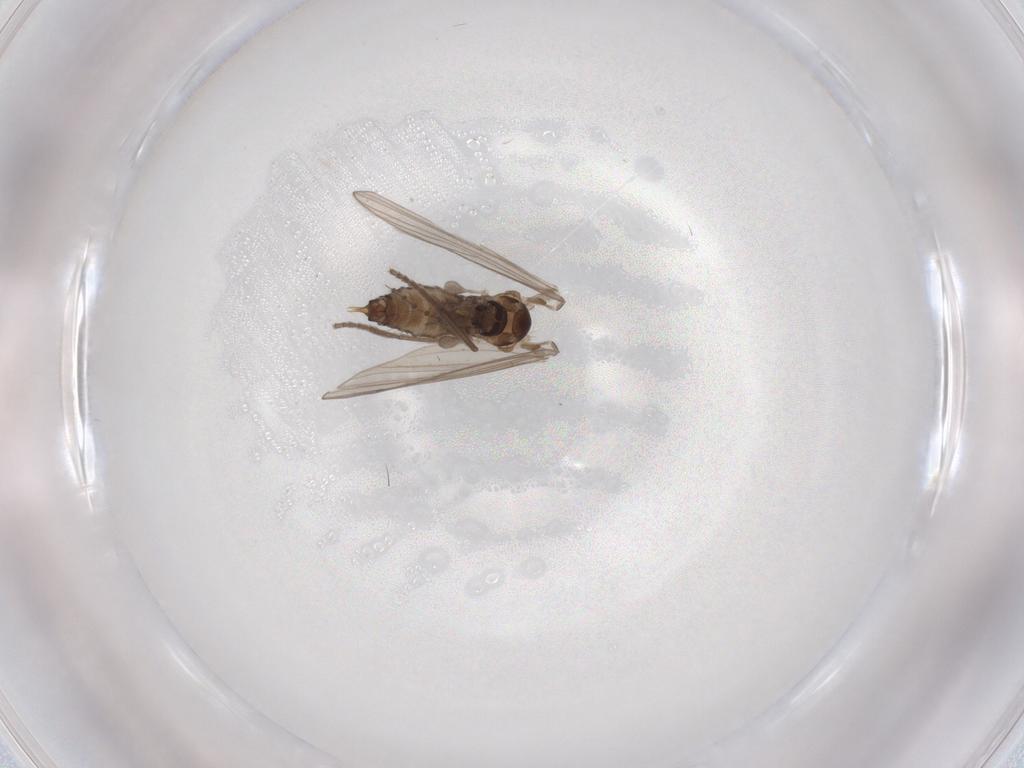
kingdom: Animalia
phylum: Arthropoda
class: Insecta
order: Diptera
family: Psychodidae
